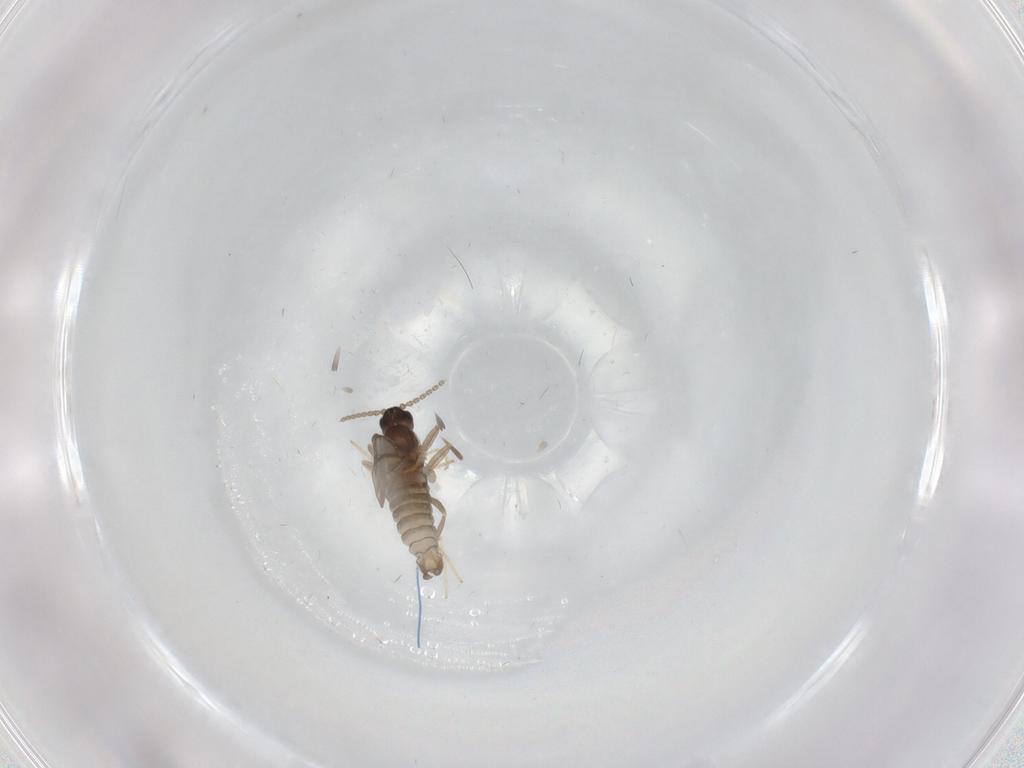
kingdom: Animalia
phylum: Arthropoda
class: Insecta
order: Diptera
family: Cecidomyiidae
